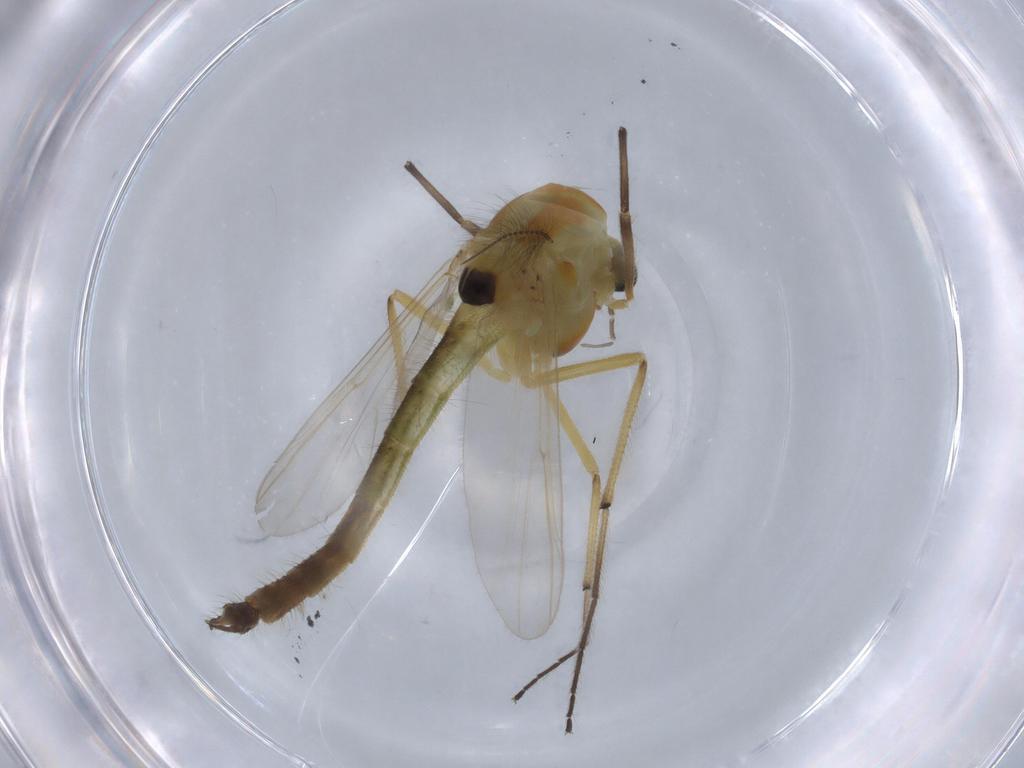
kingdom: Animalia
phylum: Arthropoda
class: Insecta
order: Diptera
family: Chironomidae
